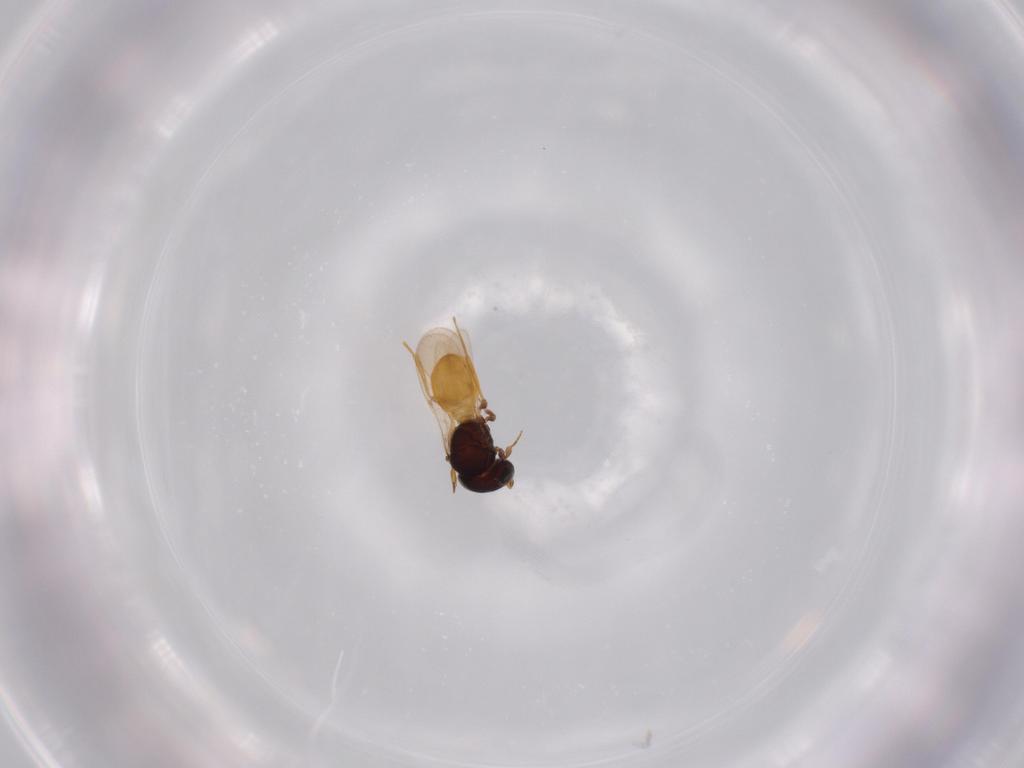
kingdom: Animalia
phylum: Arthropoda
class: Insecta
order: Hymenoptera
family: Scelionidae
